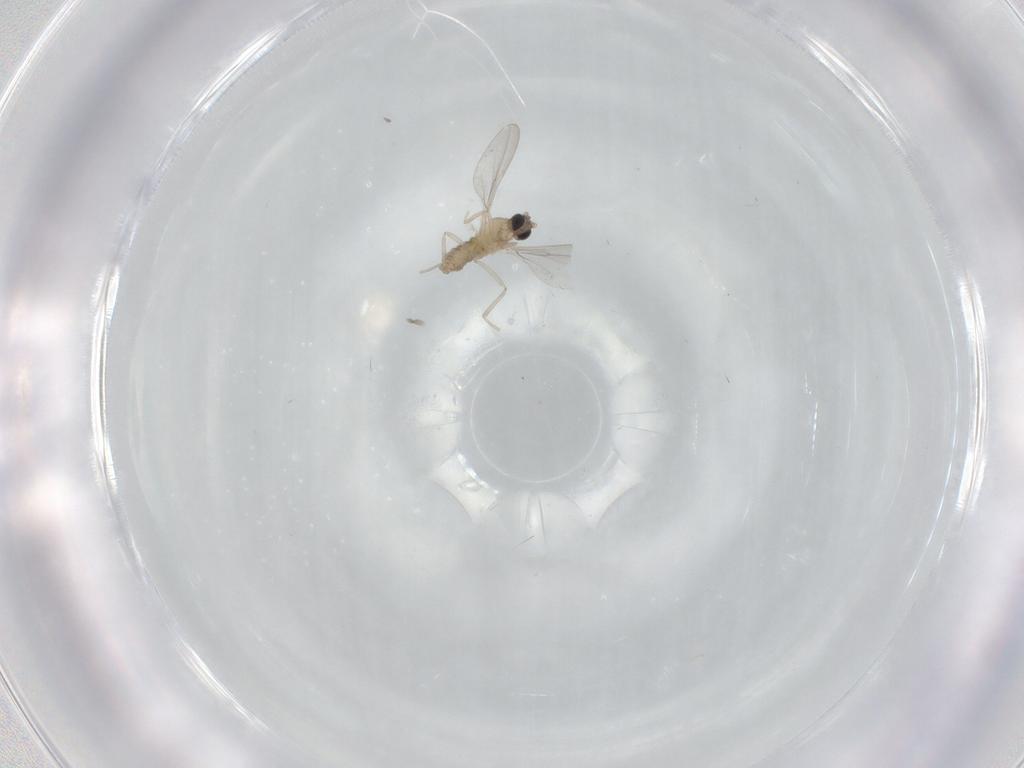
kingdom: Animalia
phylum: Arthropoda
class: Insecta
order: Diptera
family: Cecidomyiidae
